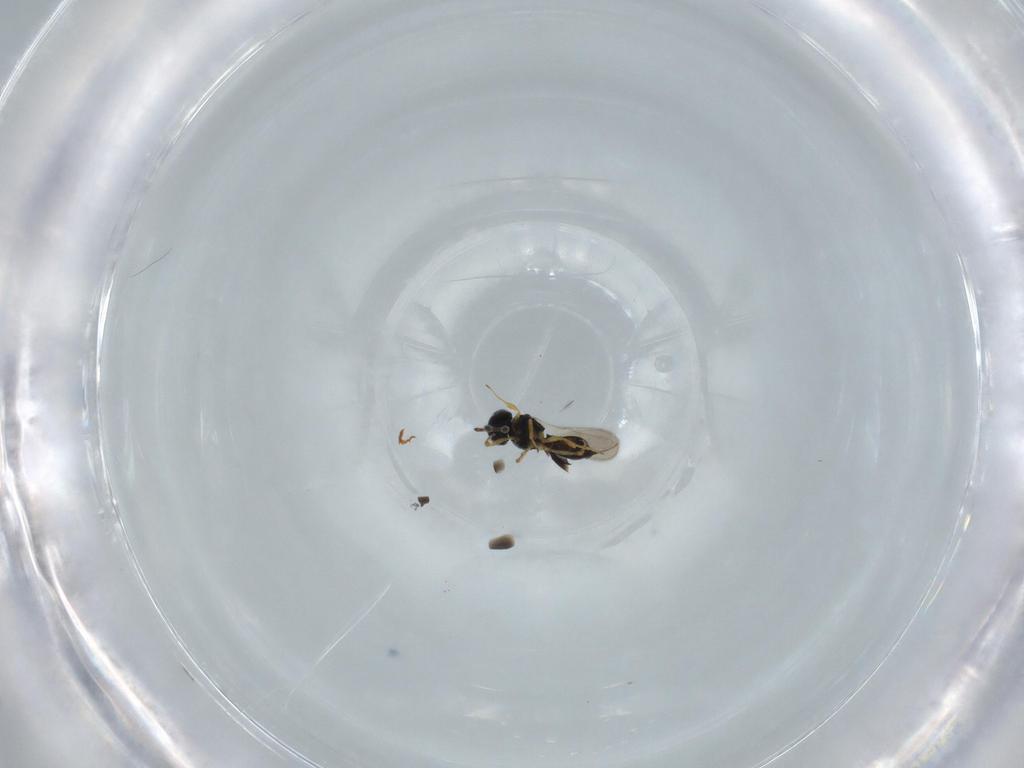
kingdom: Animalia
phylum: Arthropoda
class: Insecta
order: Hymenoptera
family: Scelionidae
